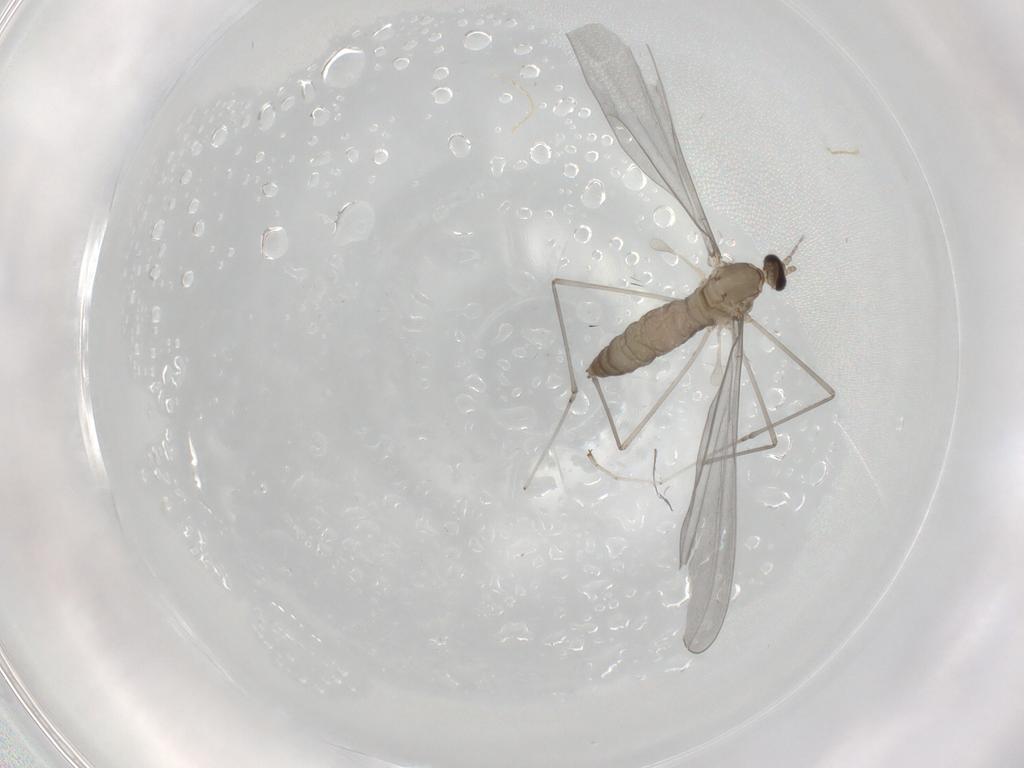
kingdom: Animalia
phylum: Arthropoda
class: Insecta
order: Diptera
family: Cecidomyiidae
